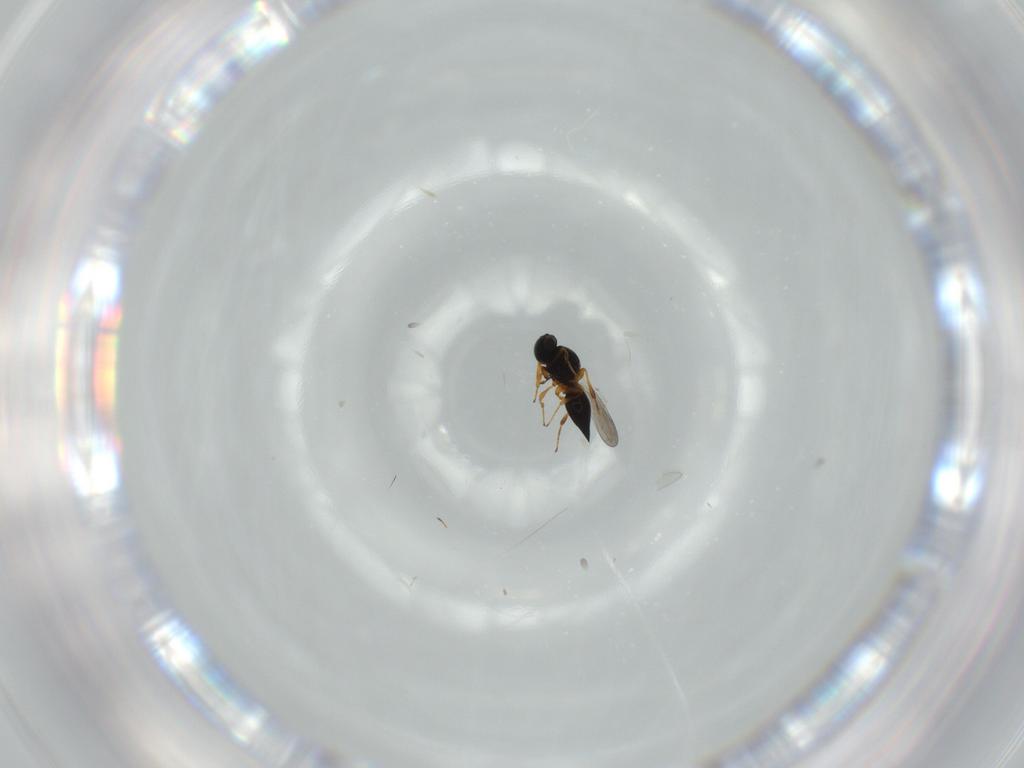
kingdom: Animalia
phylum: Arthropoda
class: Insecta
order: Hymenoptera
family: Diapriidae
